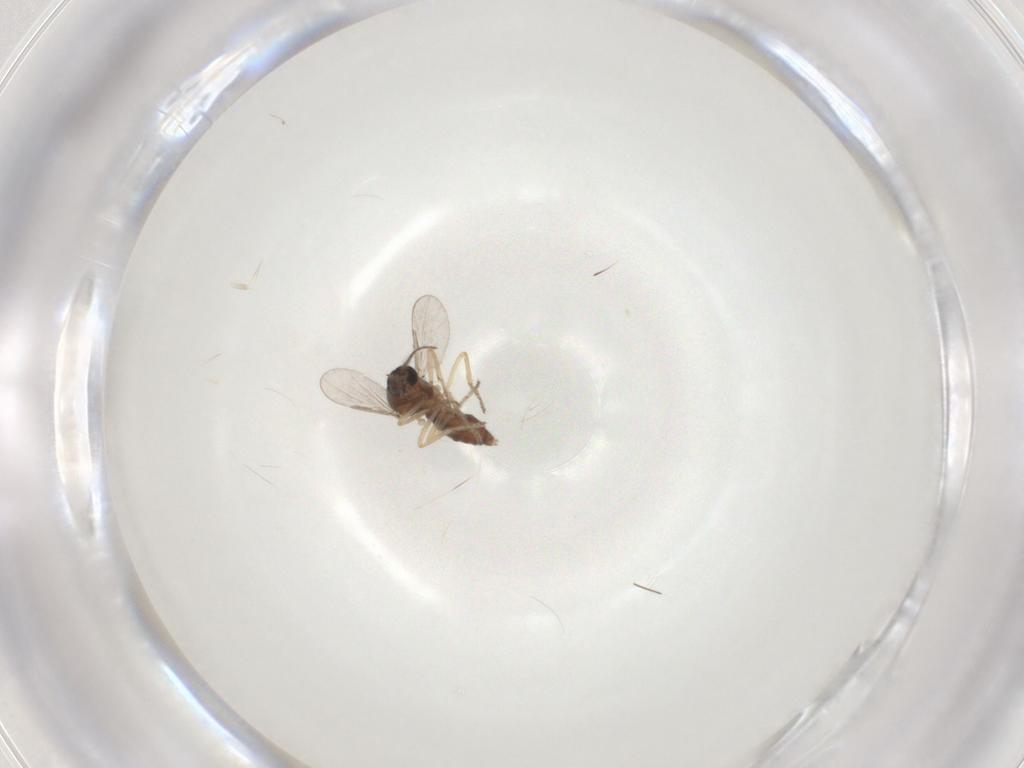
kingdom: Animalia
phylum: Arthropoda
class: Insecta
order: Diptera
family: Ceratopogonidae
